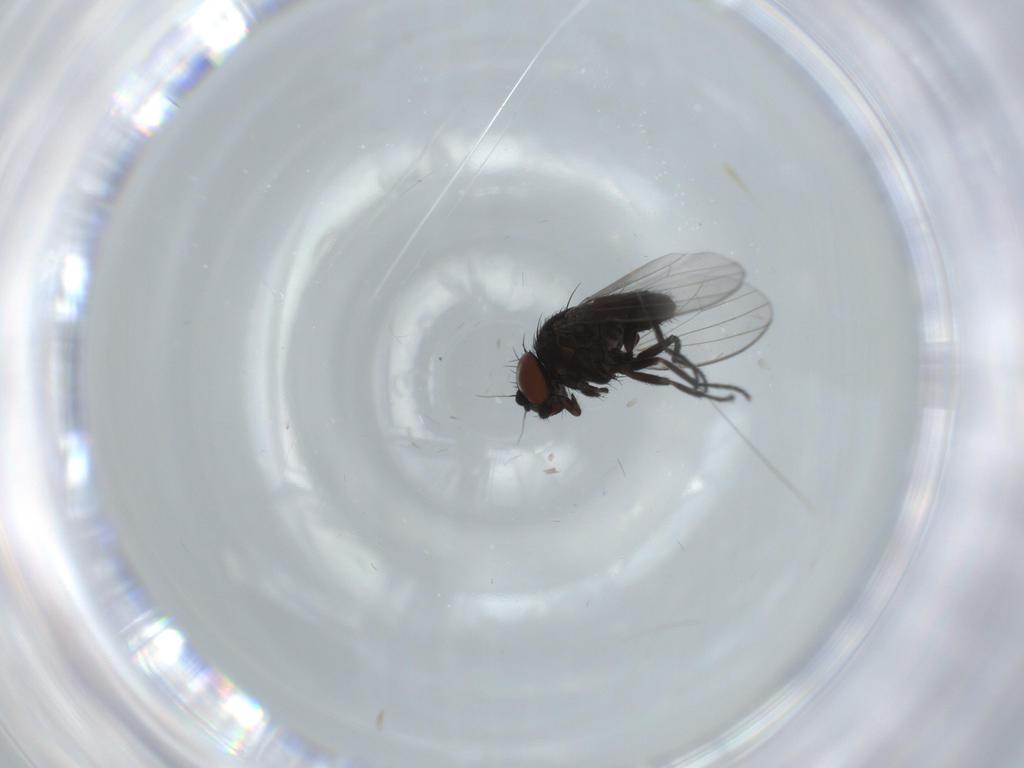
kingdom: Animalia
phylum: Arthropoda
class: Insecta
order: Diptera
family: Milichiidae
